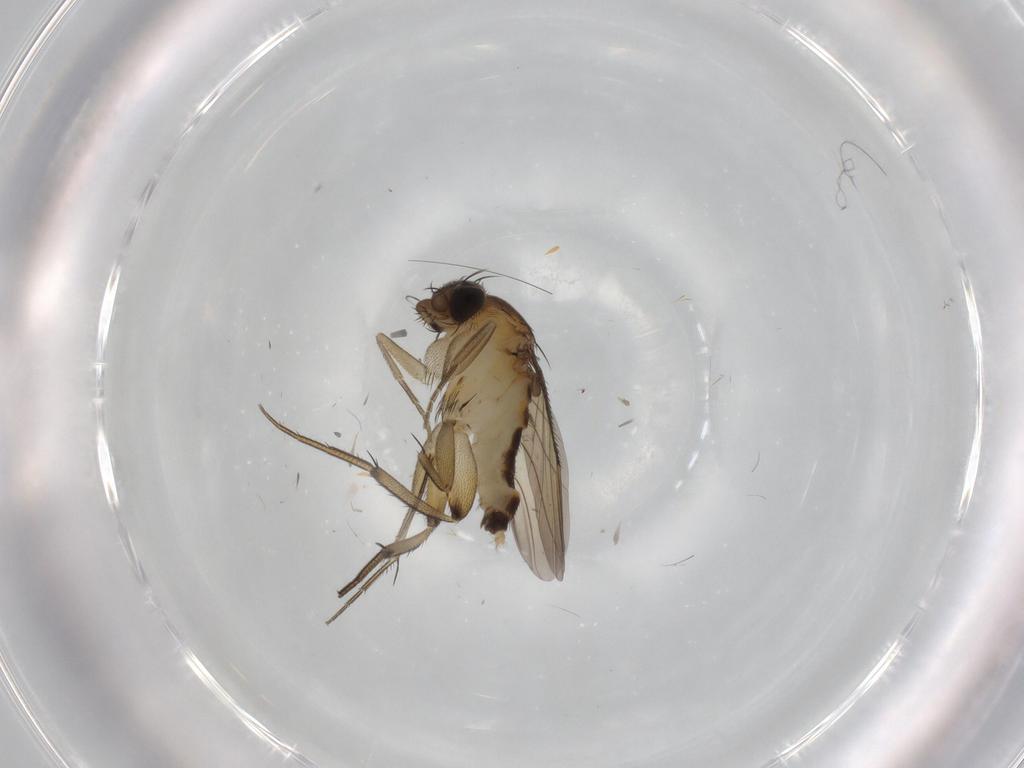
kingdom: Animalia
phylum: Arthropoda
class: Insecta
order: Diptera
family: Phoridae
